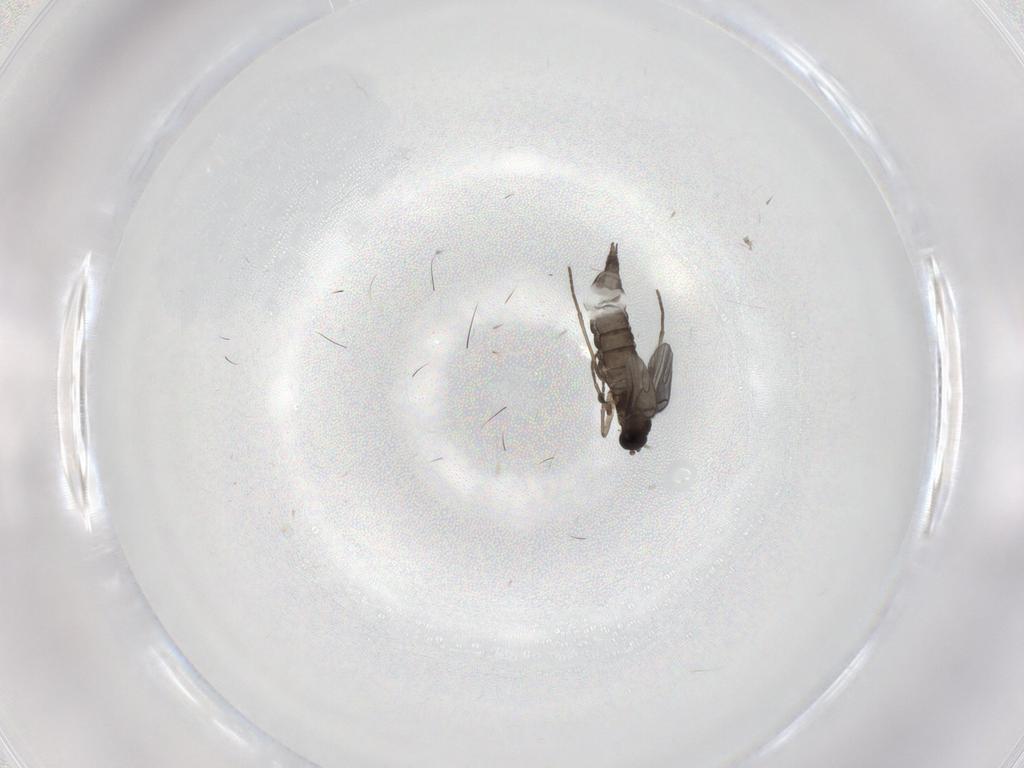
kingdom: Animalia
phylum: Arthropoda
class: Insecta
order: Diptera
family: Sciaridae
